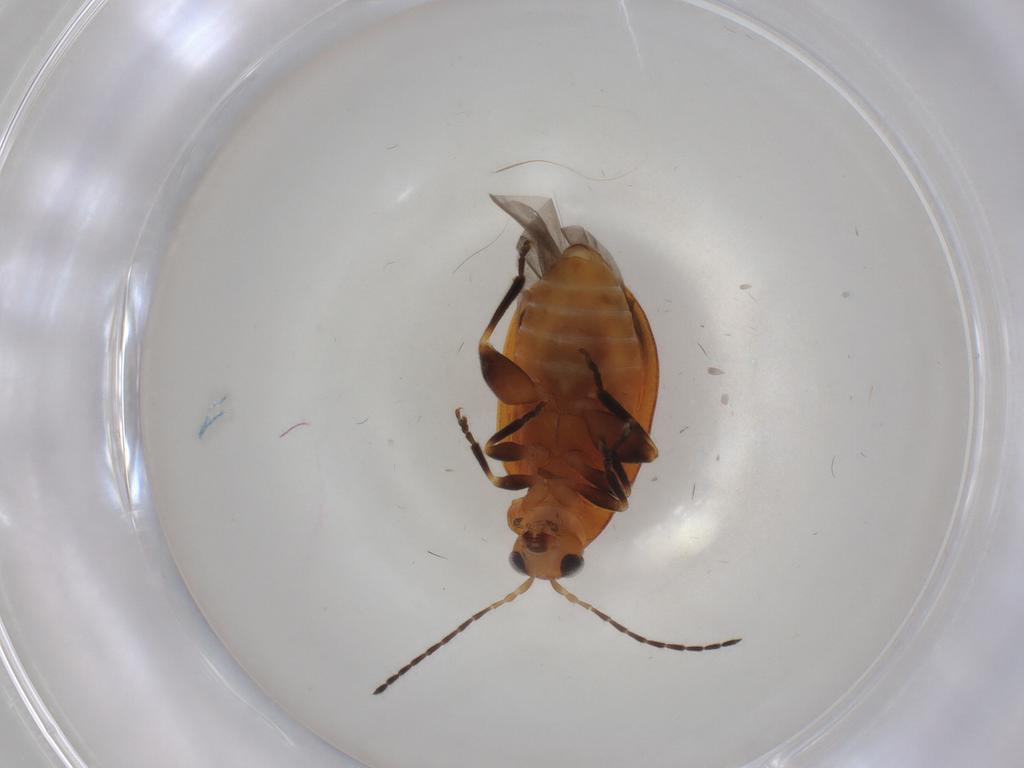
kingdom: Animalia
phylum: Arthropoda
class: Insecta
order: Coleoptera
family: Chrysomelidae
